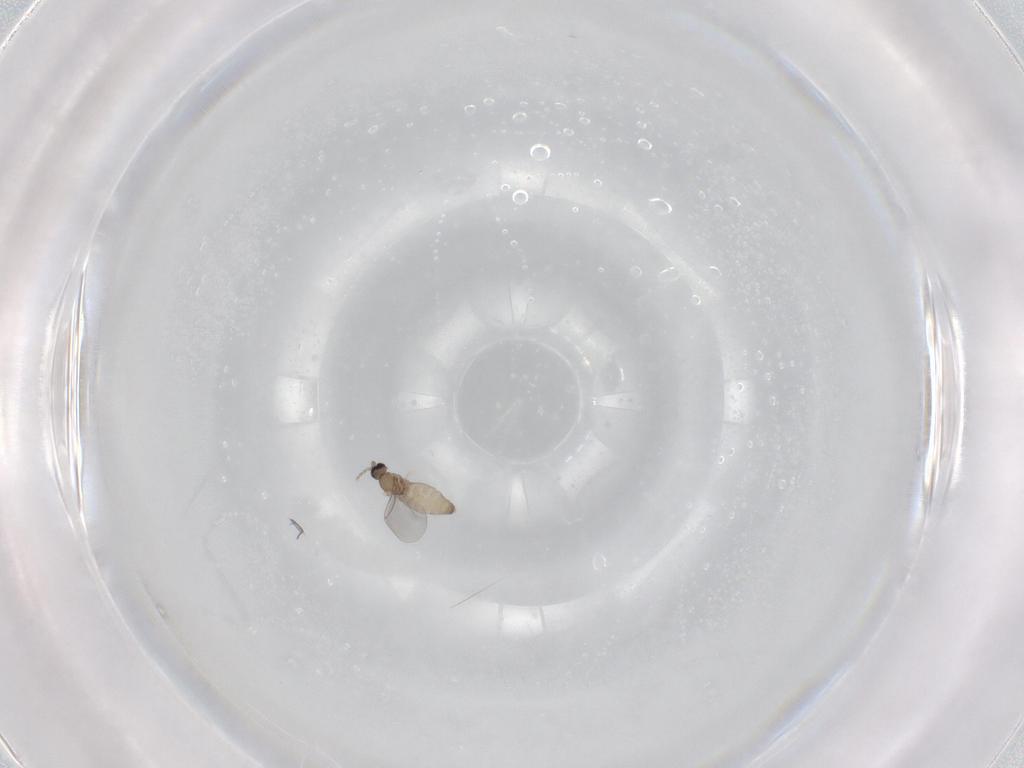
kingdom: Animalia
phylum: Arthropoda
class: Insecta
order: Diptera
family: Cecidomyiidae
